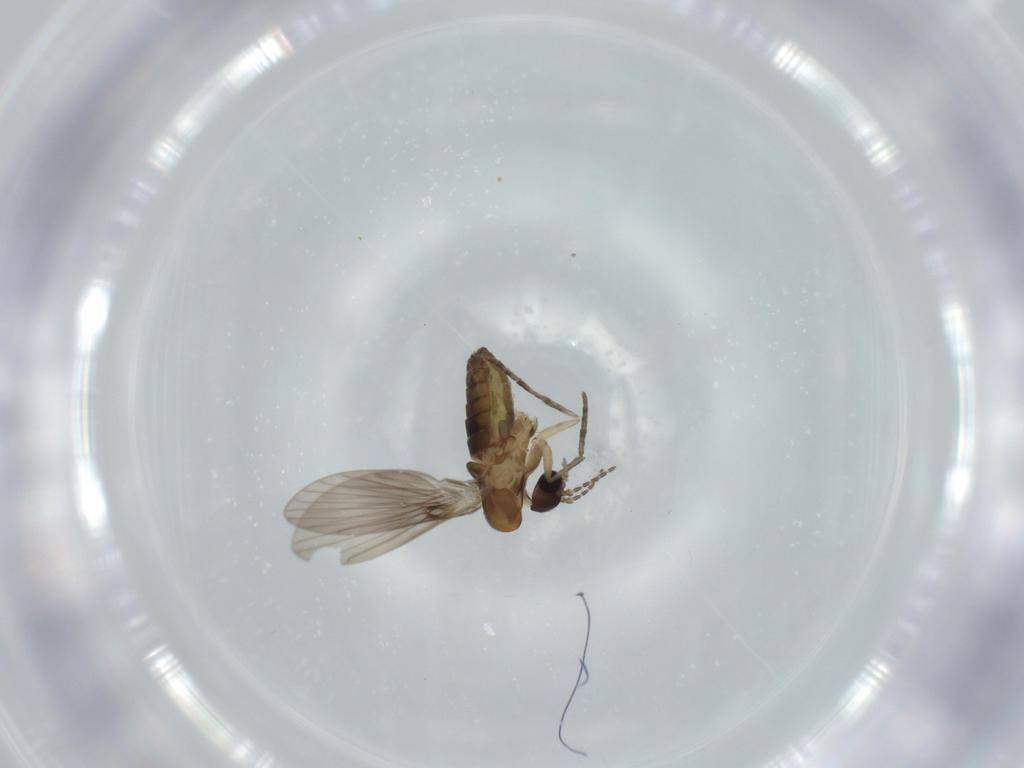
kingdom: Animalia
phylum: Arthropoda
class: Insecta
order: Diptera
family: Psychodidae
